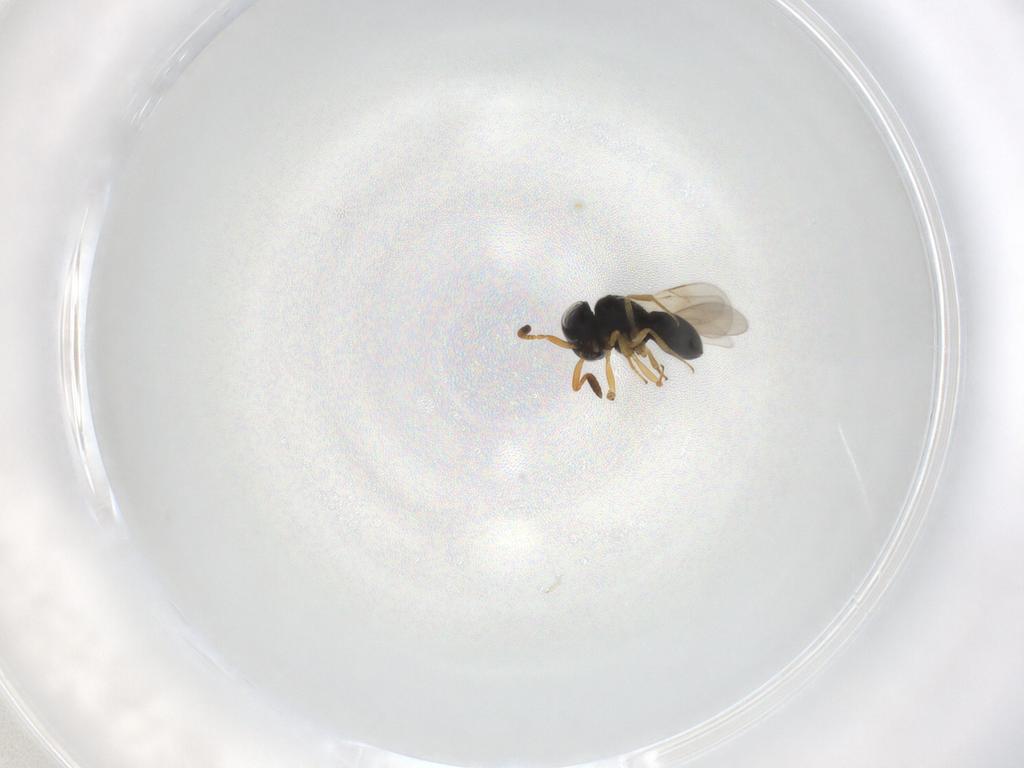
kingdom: Animalia
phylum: Arthropoda
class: Insecta
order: Hymenoptera
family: Scelionidae
